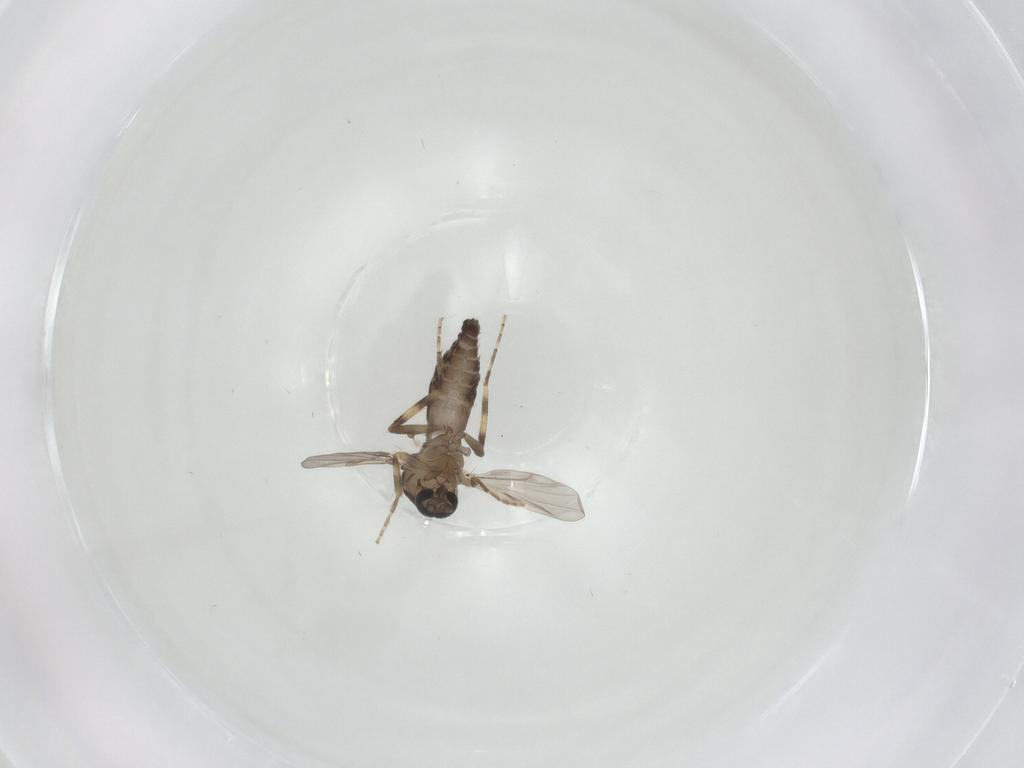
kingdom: Animalia
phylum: Arthropoda
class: Insecta
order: Diptera
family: Ceratopogonidae
